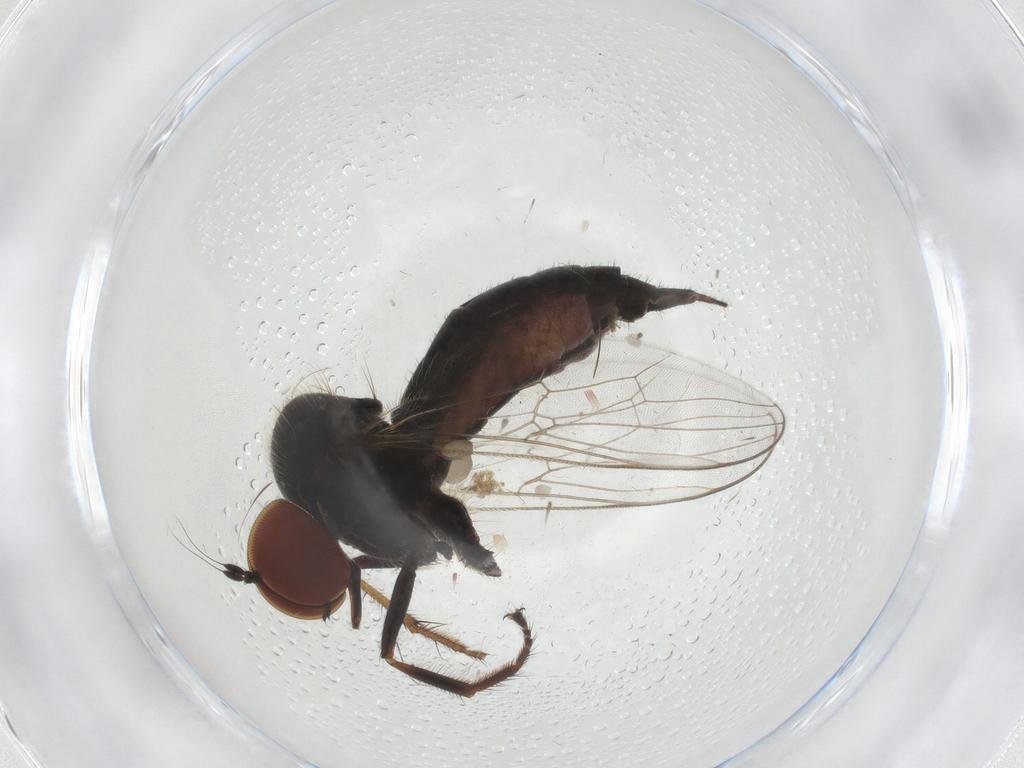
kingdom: Animalia
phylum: Arthropoda
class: Insecta
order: Diptera
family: Hybotidae
